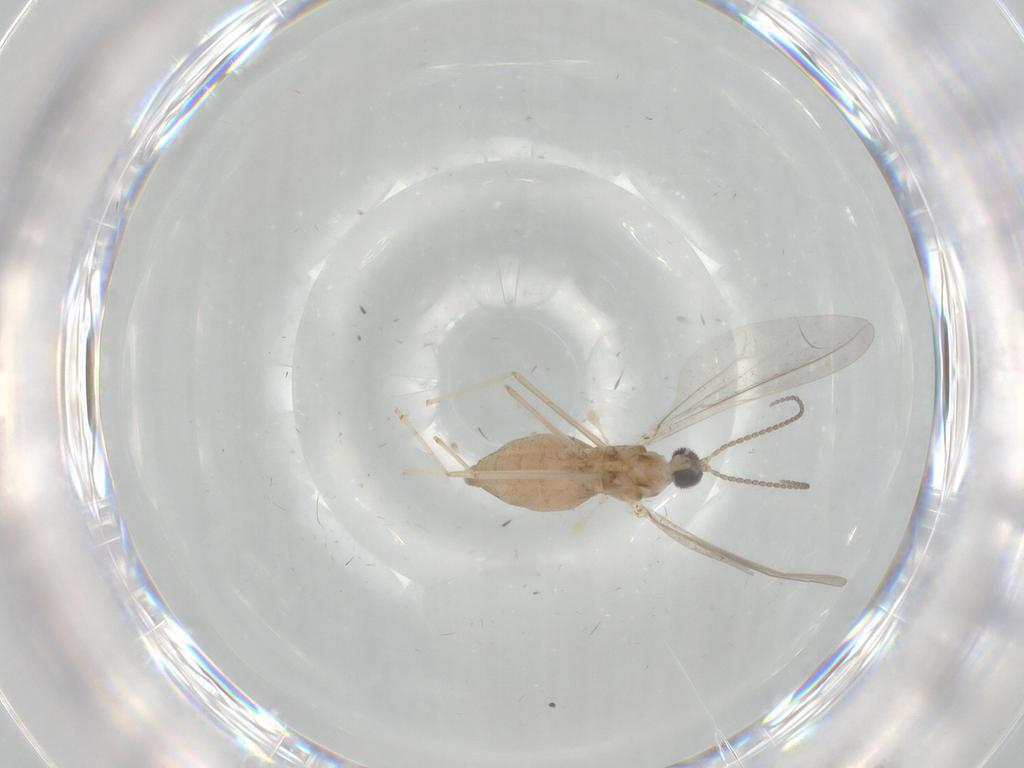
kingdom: Animalia
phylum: Arthropoda
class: Insecta
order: Diptera
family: Cecidomyiidae
